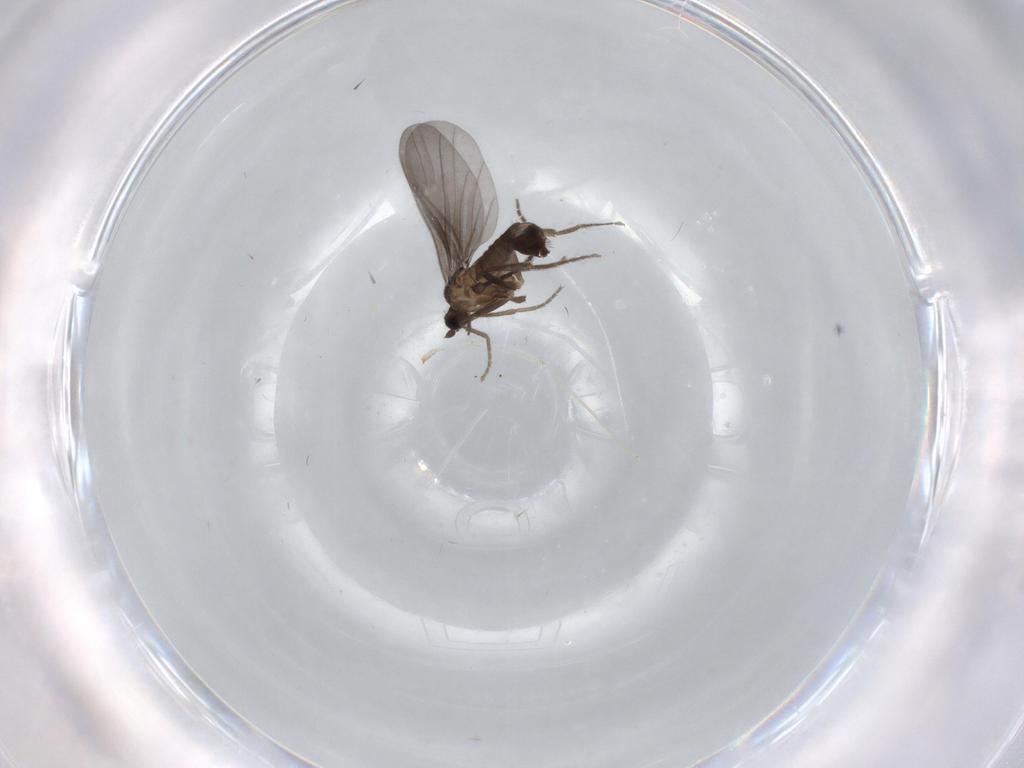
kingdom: Animalia
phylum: Arthropoda
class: Insecta
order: Diptera
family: Phoridae
